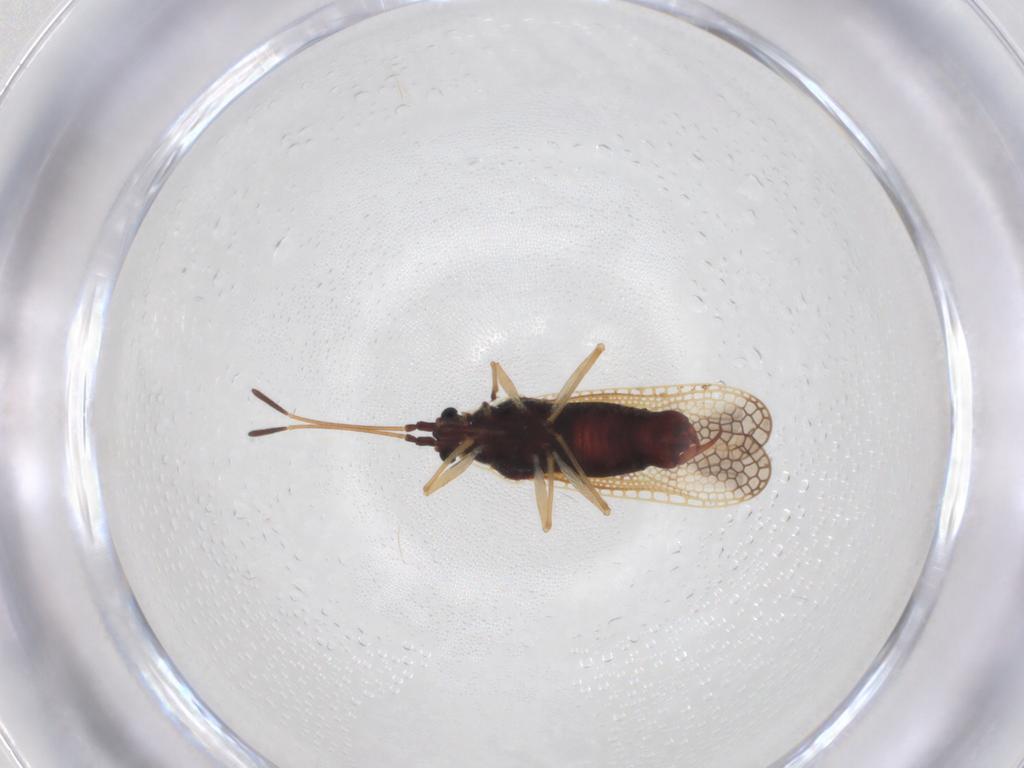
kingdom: Animalia
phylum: Arthropoda
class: Insecta
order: Hemiptera
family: Tingidae
